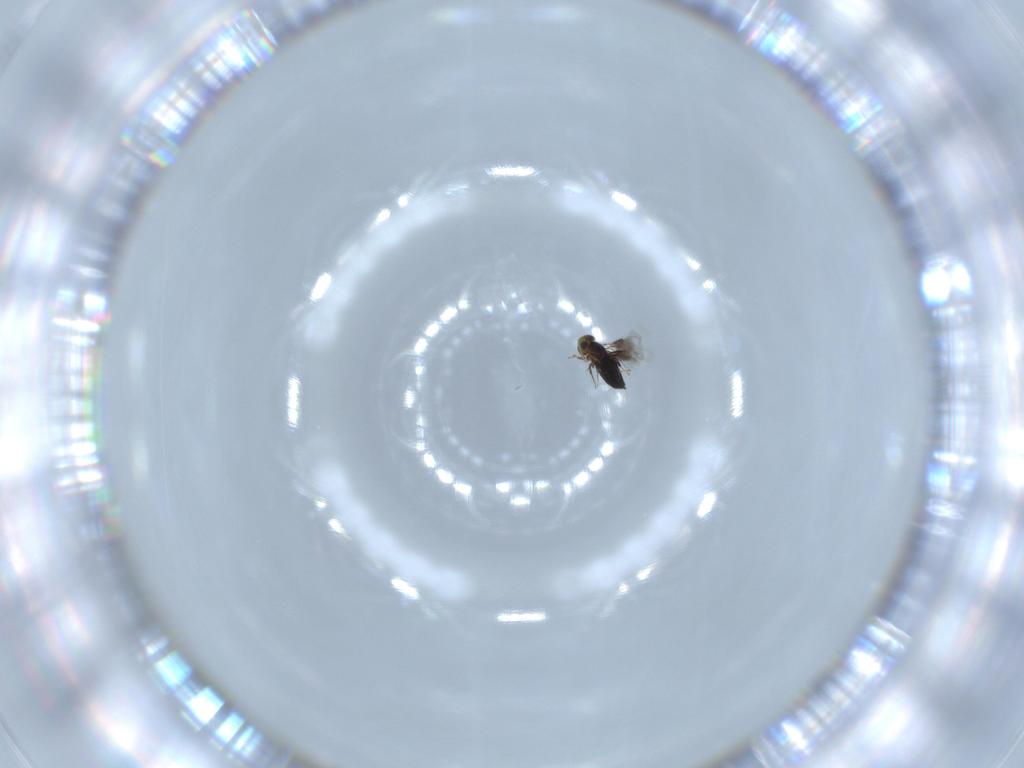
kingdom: Animalia
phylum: Arthropoda
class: Insecta
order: Hymenoptera
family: Signiphoridae
